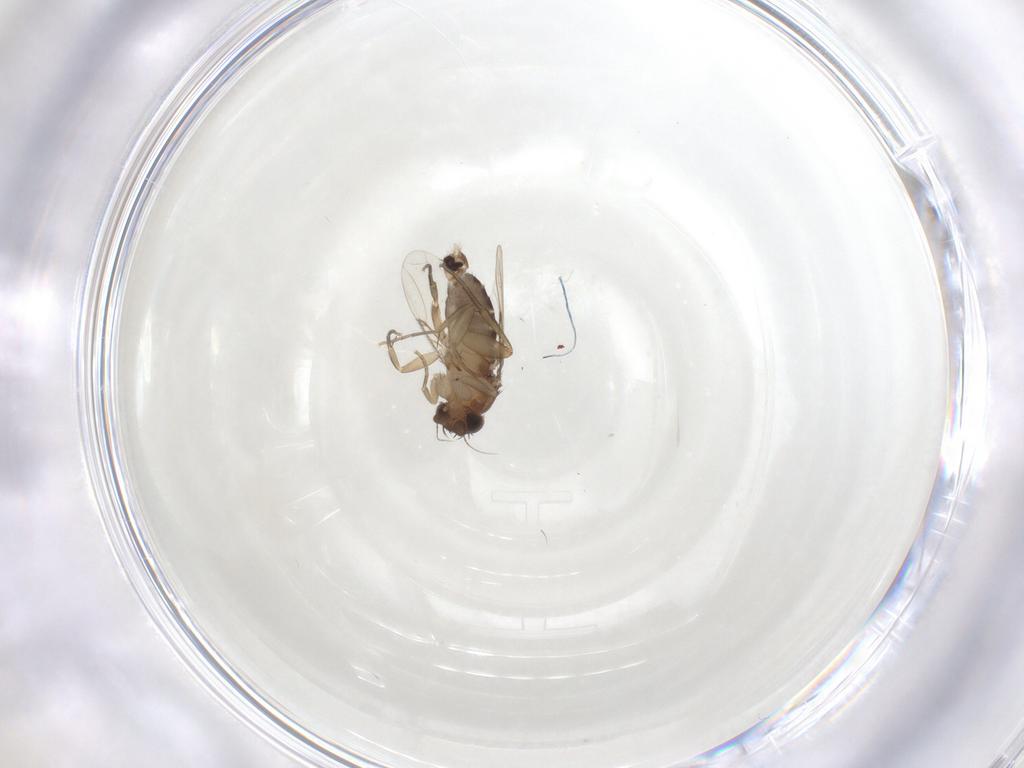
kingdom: Animalia
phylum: Arthropoda
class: Insecta
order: Diptera
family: Phoridae
